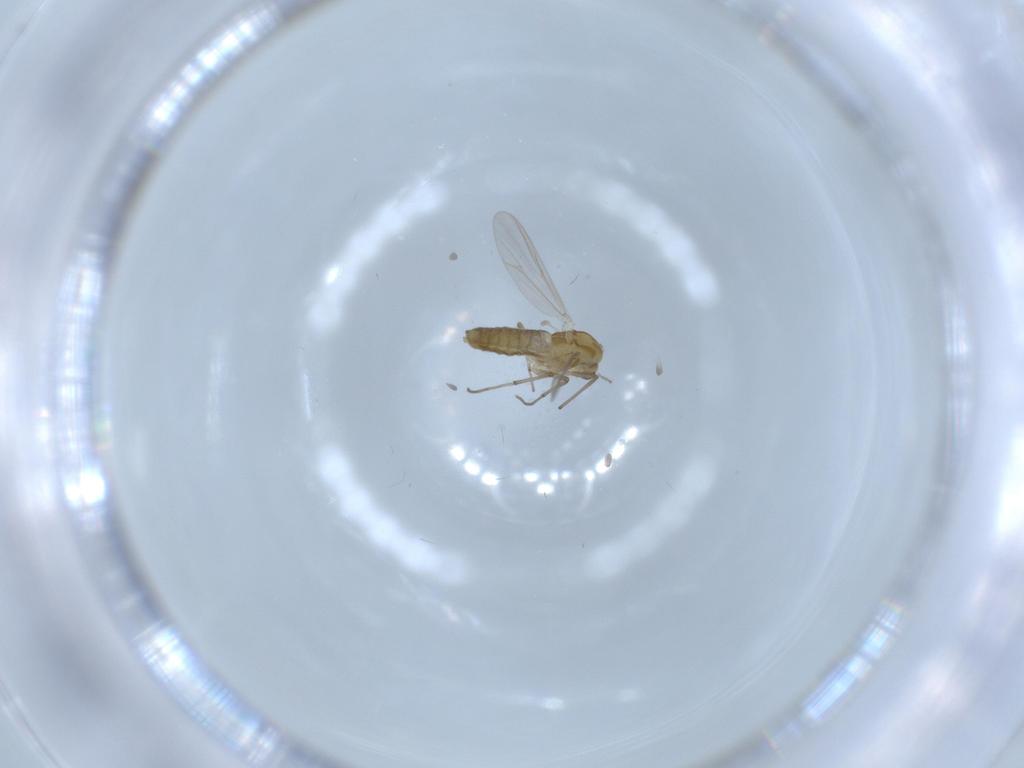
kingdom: Animalia
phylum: Arthropoda
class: Insecta
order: Diptera
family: Chironomidae
